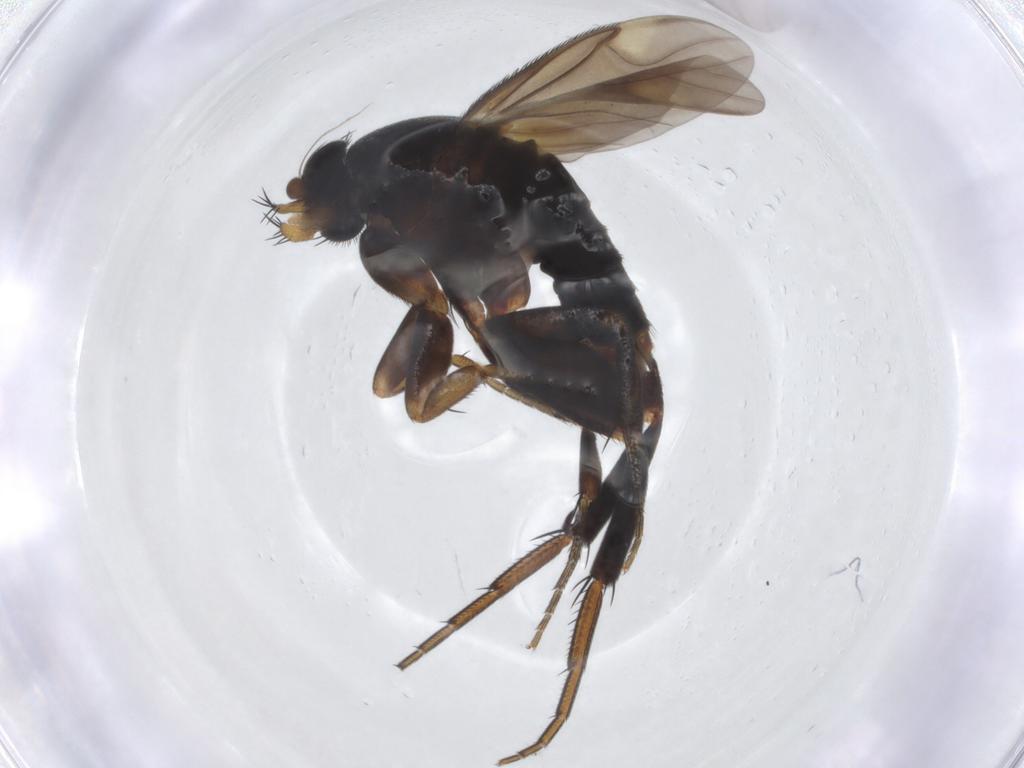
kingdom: Animalia
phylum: Arthropoda
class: Insecta
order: Diptera
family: Phoridae
